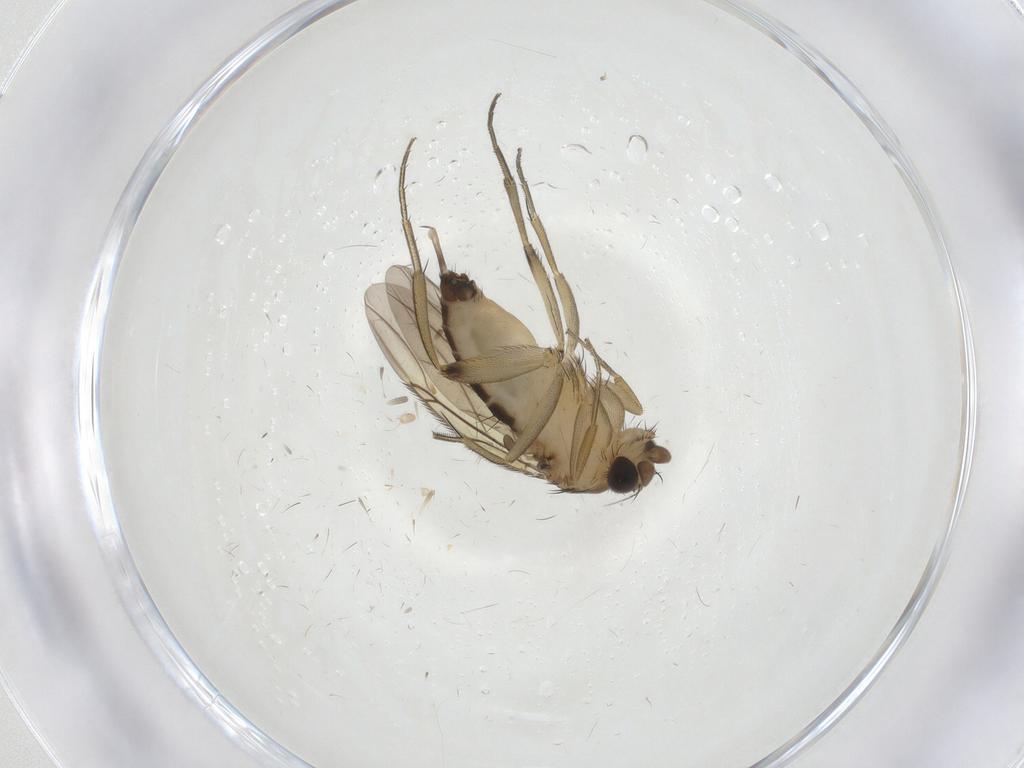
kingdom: Animalia
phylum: Arthropoda
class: Insecta
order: Diptera
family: Phoridae
